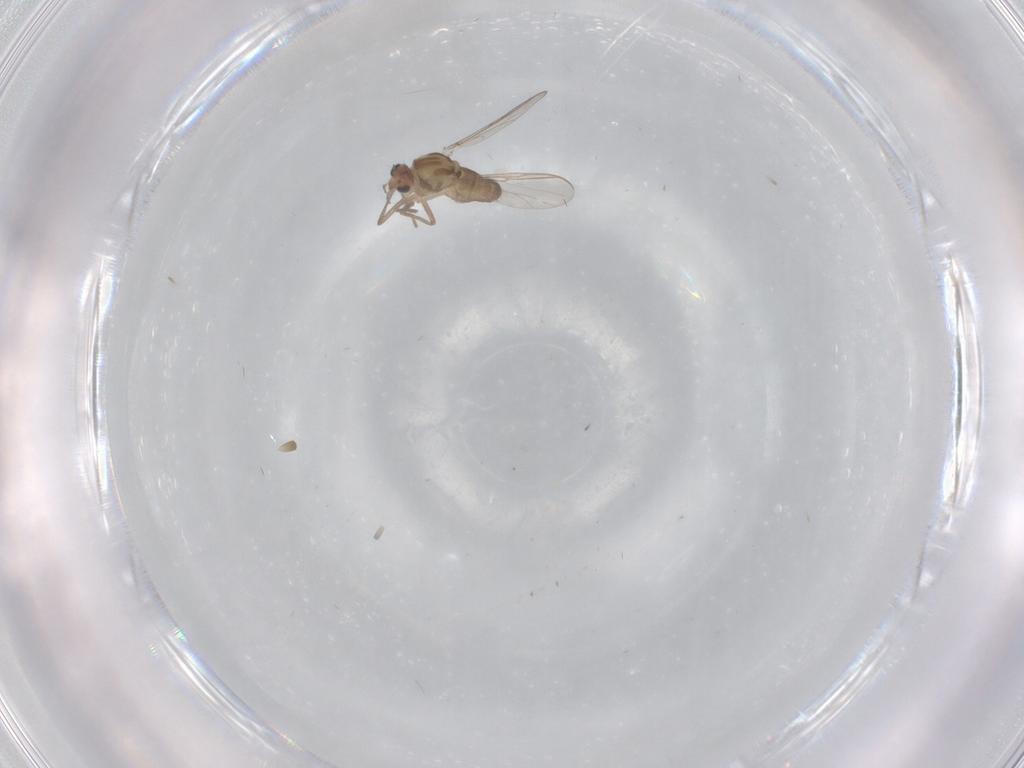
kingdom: Animalia
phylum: Arthropoda
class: Insecta
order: Diptera
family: Chironomidae
